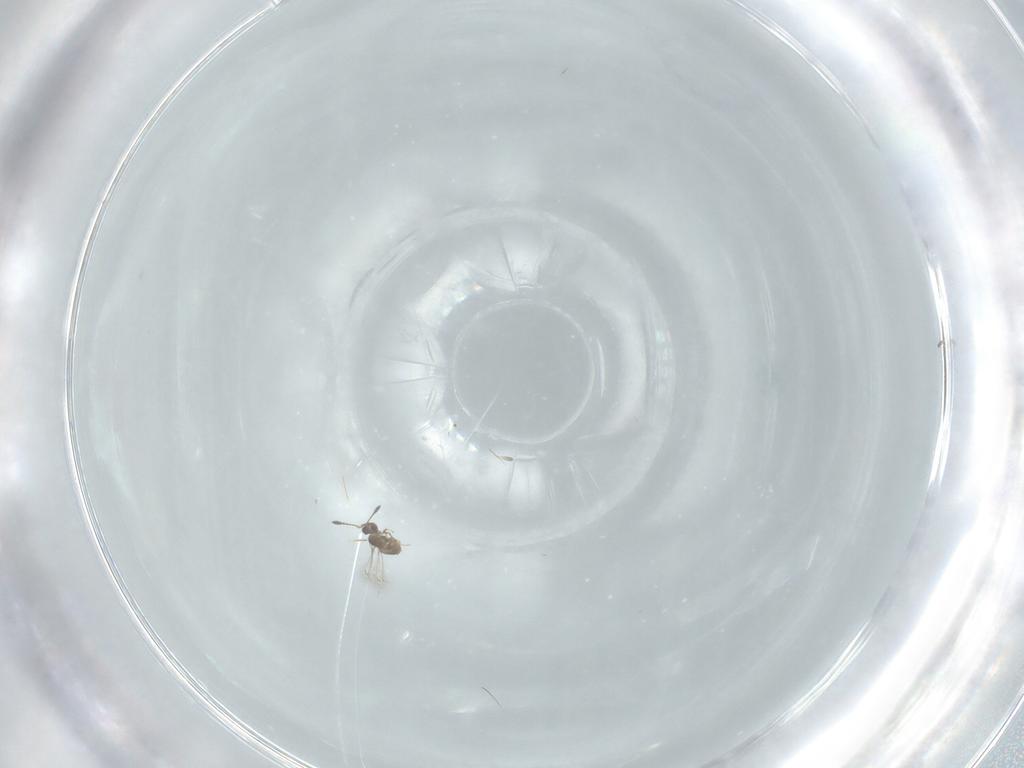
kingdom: Animalia
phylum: Arthropoda
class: Insecta
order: Hymenoptera
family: Mymaridae
